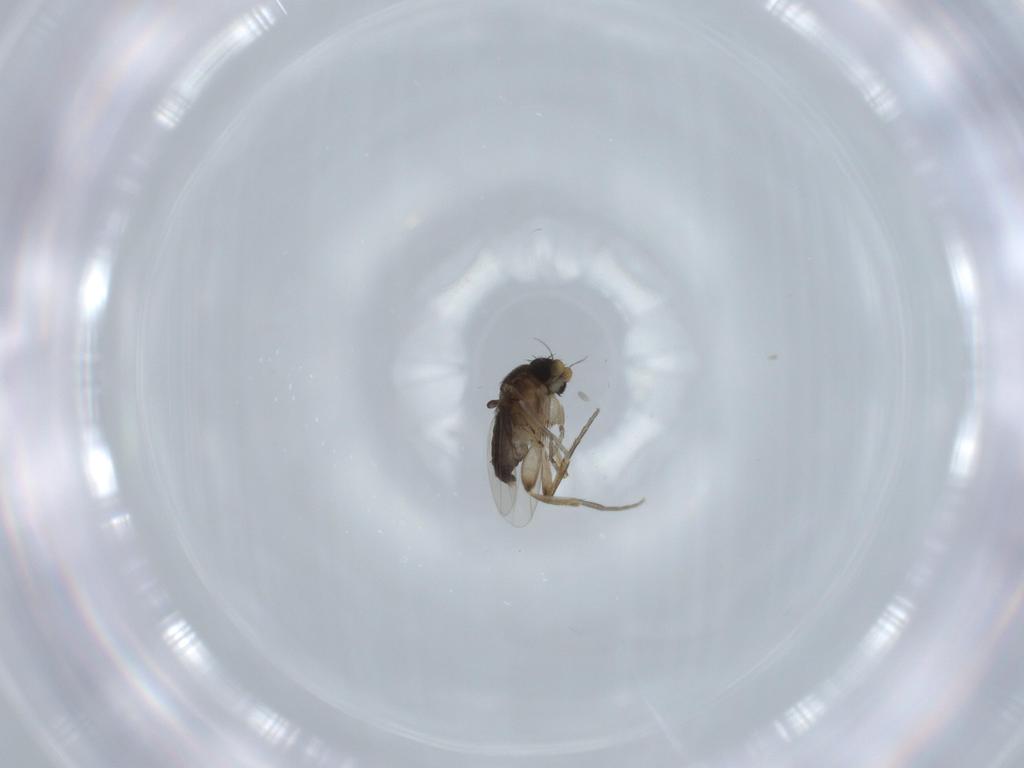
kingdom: Animalia
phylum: Arthropoda
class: Insecta
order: Diptera
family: Phoridae
